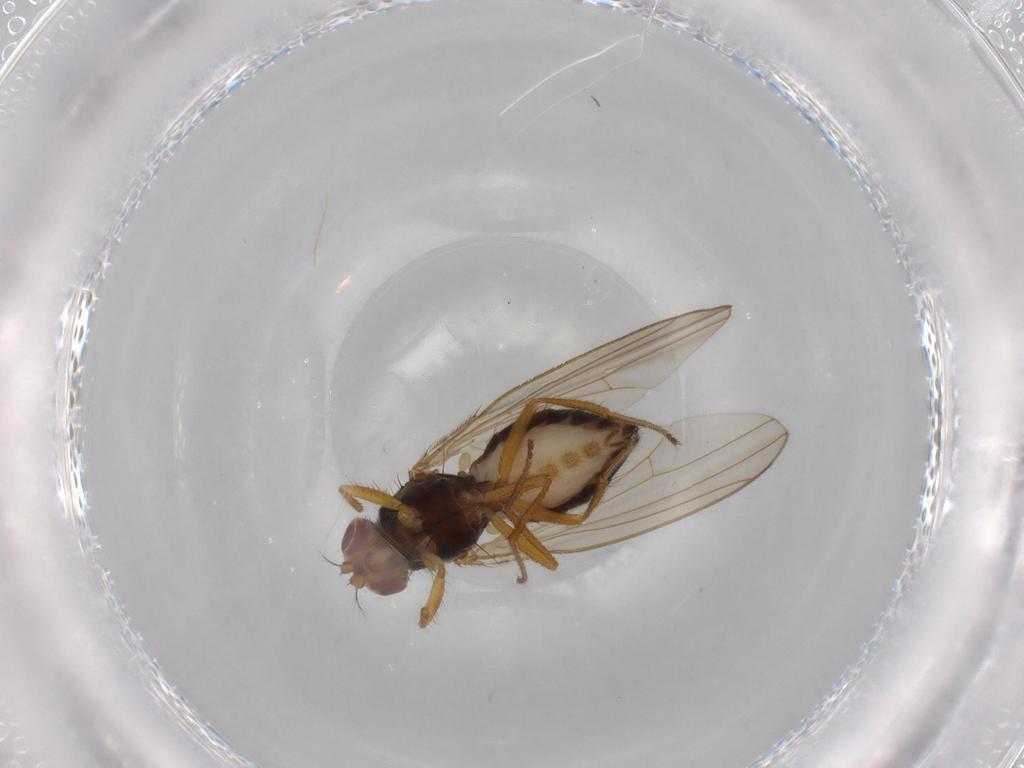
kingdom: Animalia
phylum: Arthropoda
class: Insecta
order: Diptera
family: Drosophilidae
